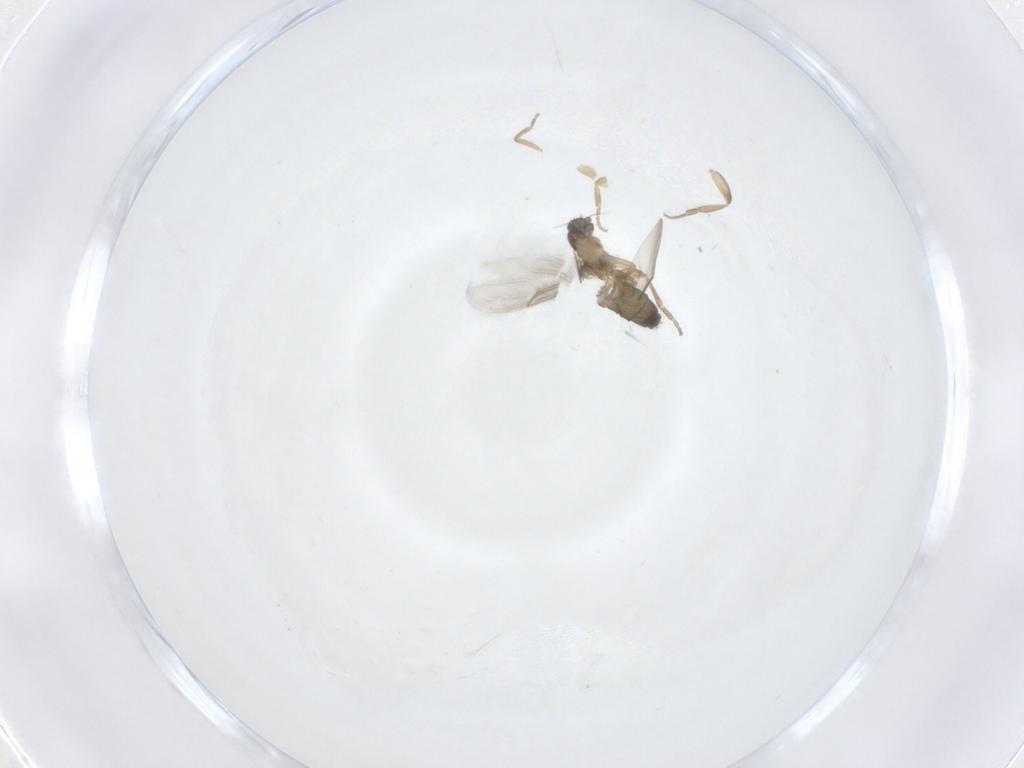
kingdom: Animalia
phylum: Arthropoda
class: Insecta
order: Diptera
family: Phoridae
